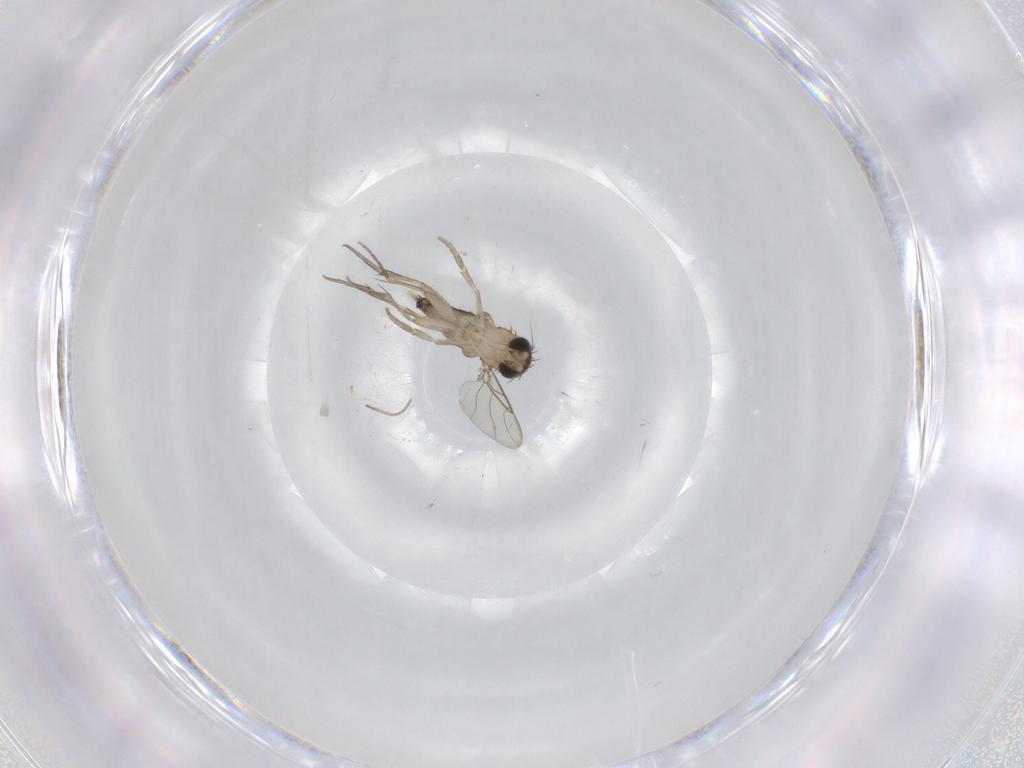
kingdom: Animalia
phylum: Arthropoda
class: Insecta
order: Diptera
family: Phoridae
